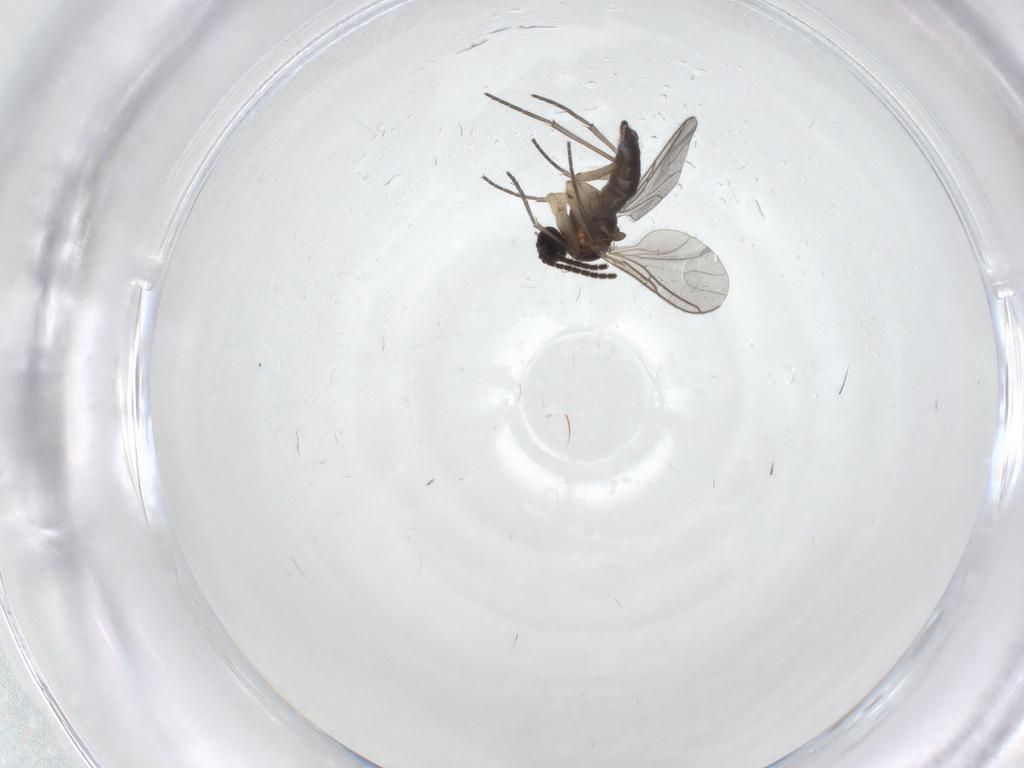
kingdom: Animalia
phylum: Arthropoda
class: Insecta
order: Diptera
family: Sciaridae
